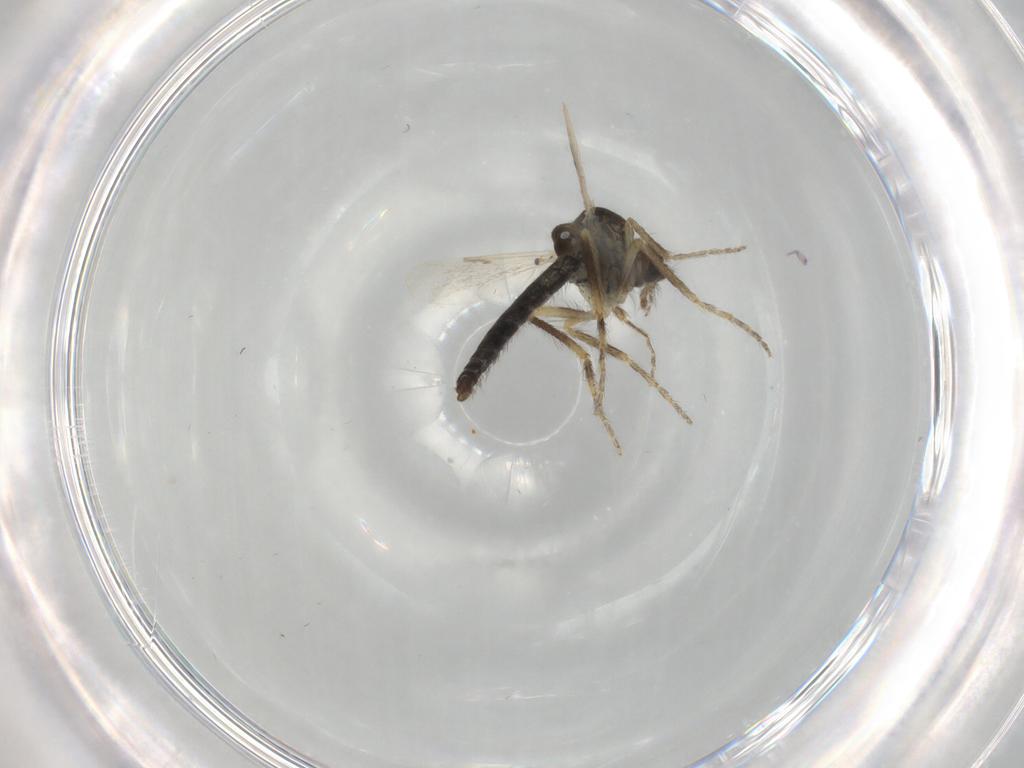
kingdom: Animalia
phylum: Arthropoda
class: Insecta
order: Diptera
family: Ceratopogonidae
